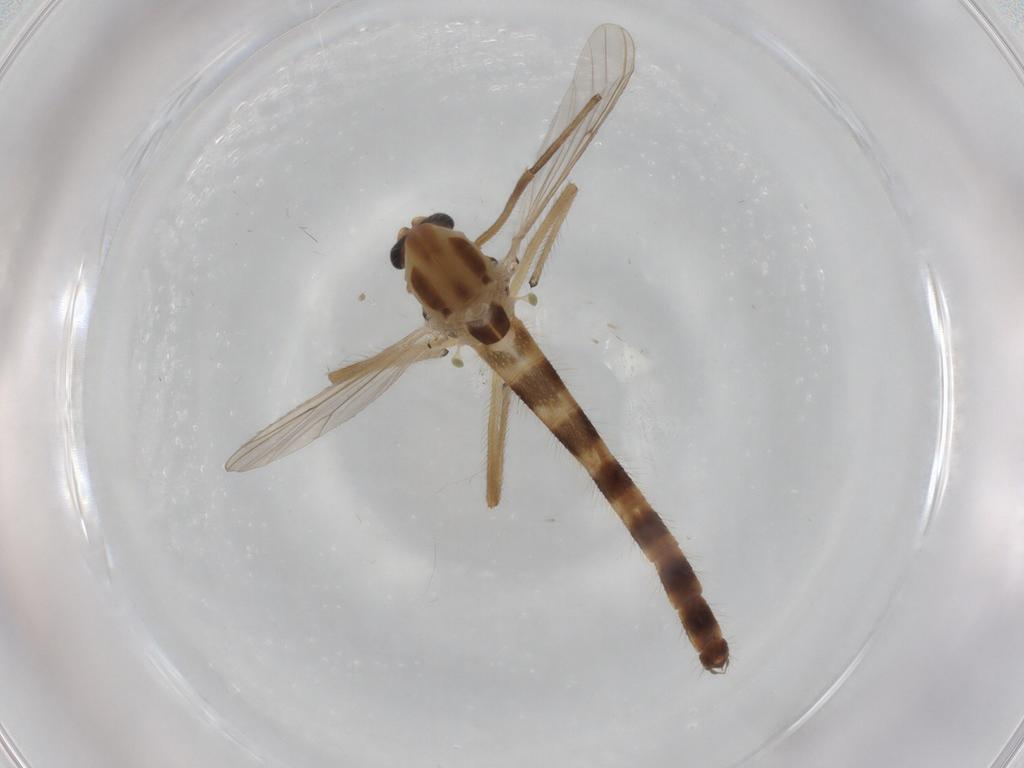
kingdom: Animalia
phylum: Arthropoda
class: Insecta
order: Diptera
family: Chironomidae
